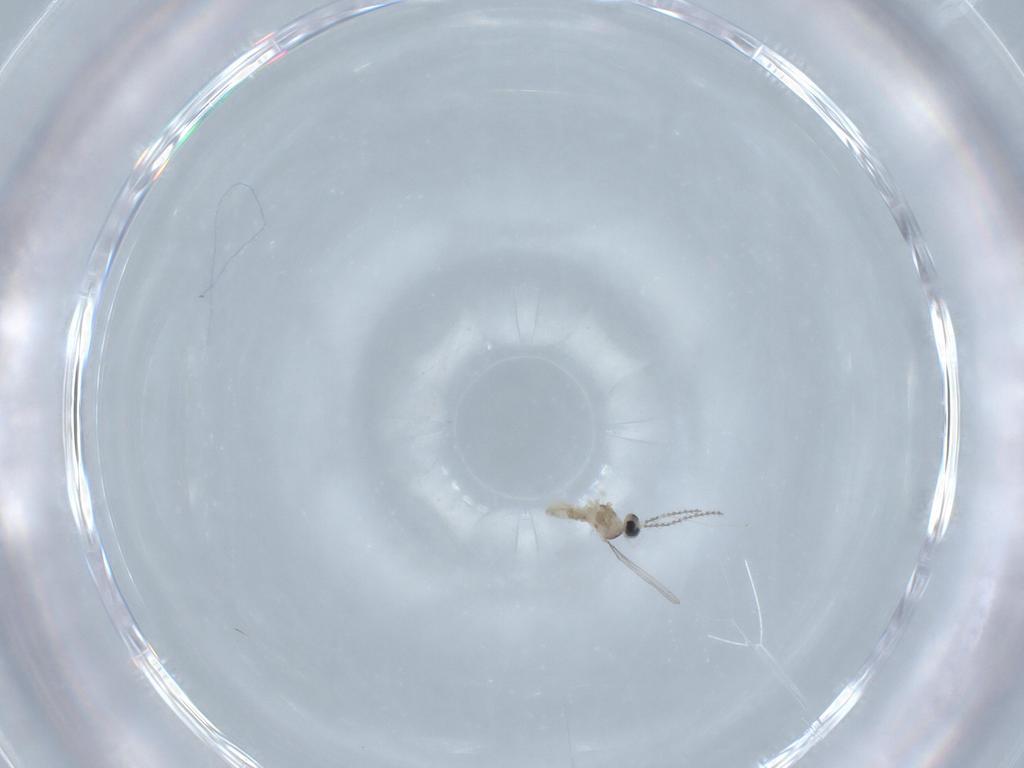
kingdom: Animalia
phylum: Arthropoda
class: Insecta
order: Diptera
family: Cecidomyiidae
